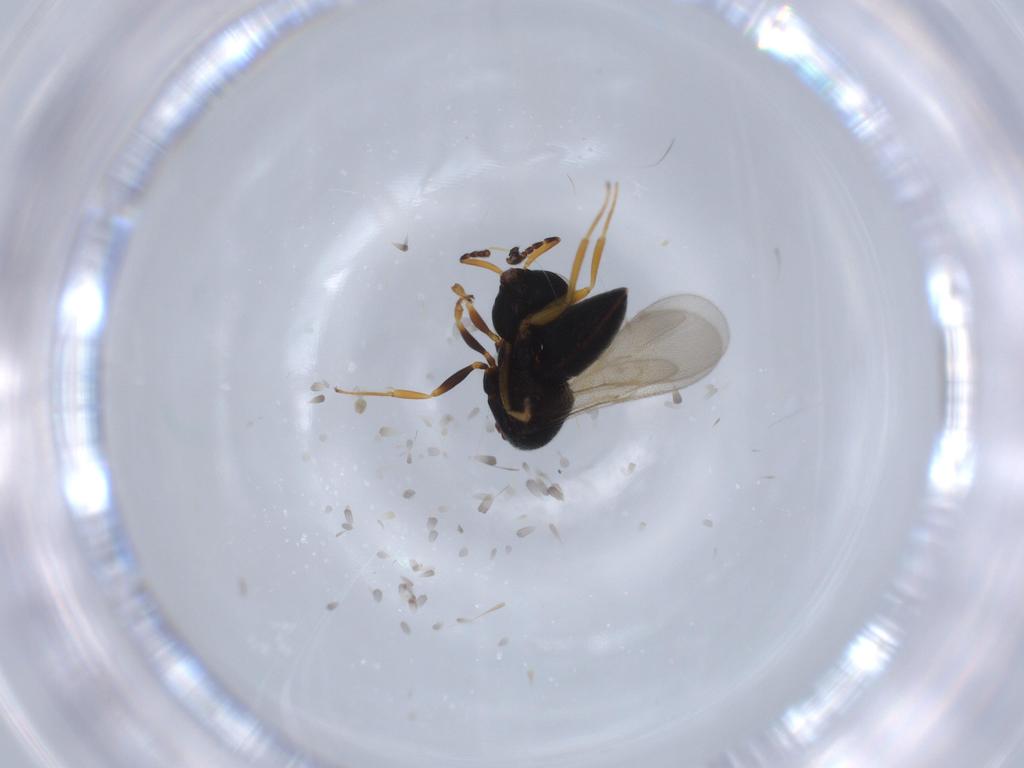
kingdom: Animalia
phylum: Arthropoda
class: Insecta
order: Hymenoptera
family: Scelionidae
